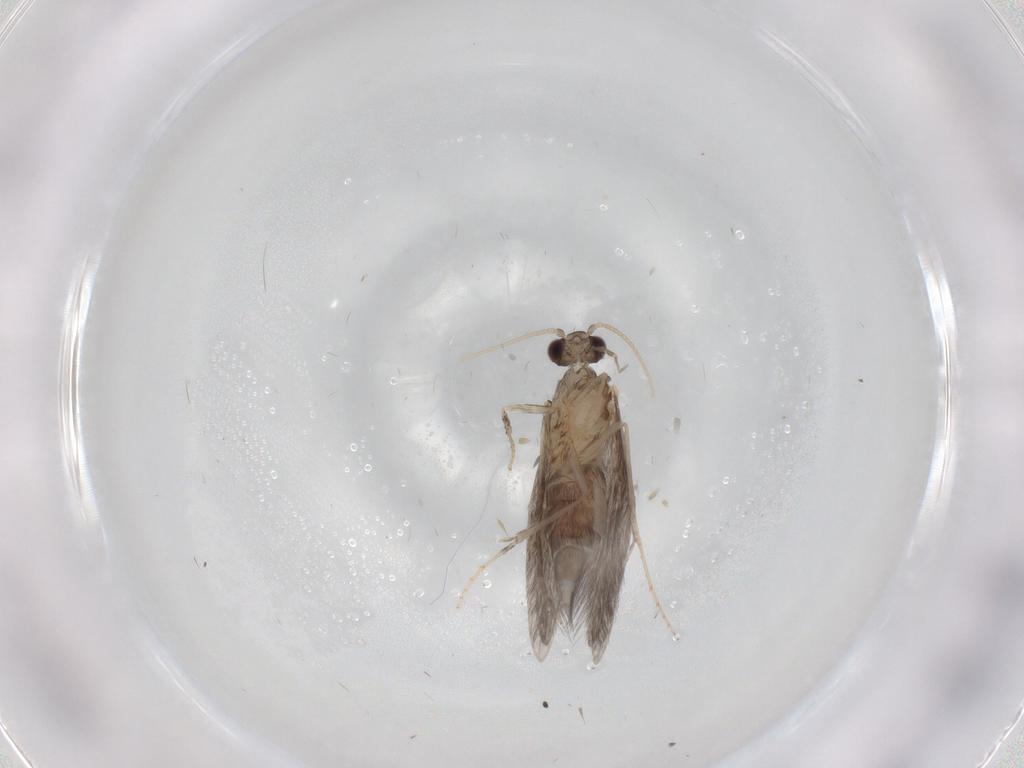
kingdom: Animalia
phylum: Arthropoda
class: Insecta
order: Trichoptera
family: Hydroptilidae
